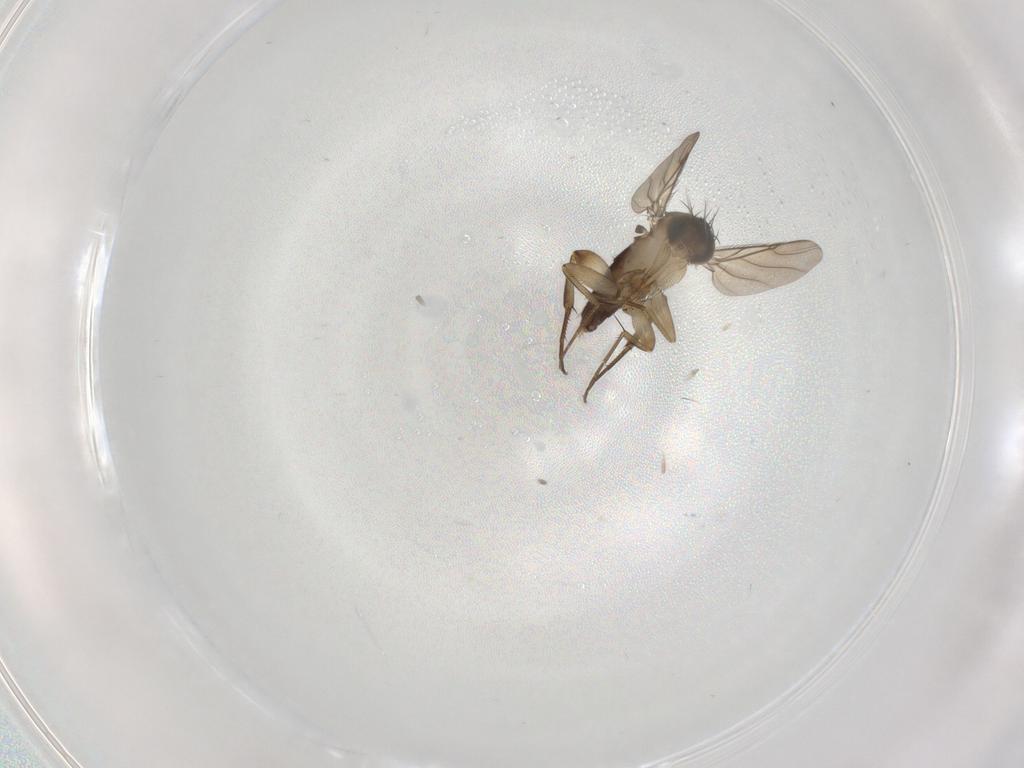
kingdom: Animalia
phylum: Arthropoda
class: Insecta
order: Diptera
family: Phoridae
